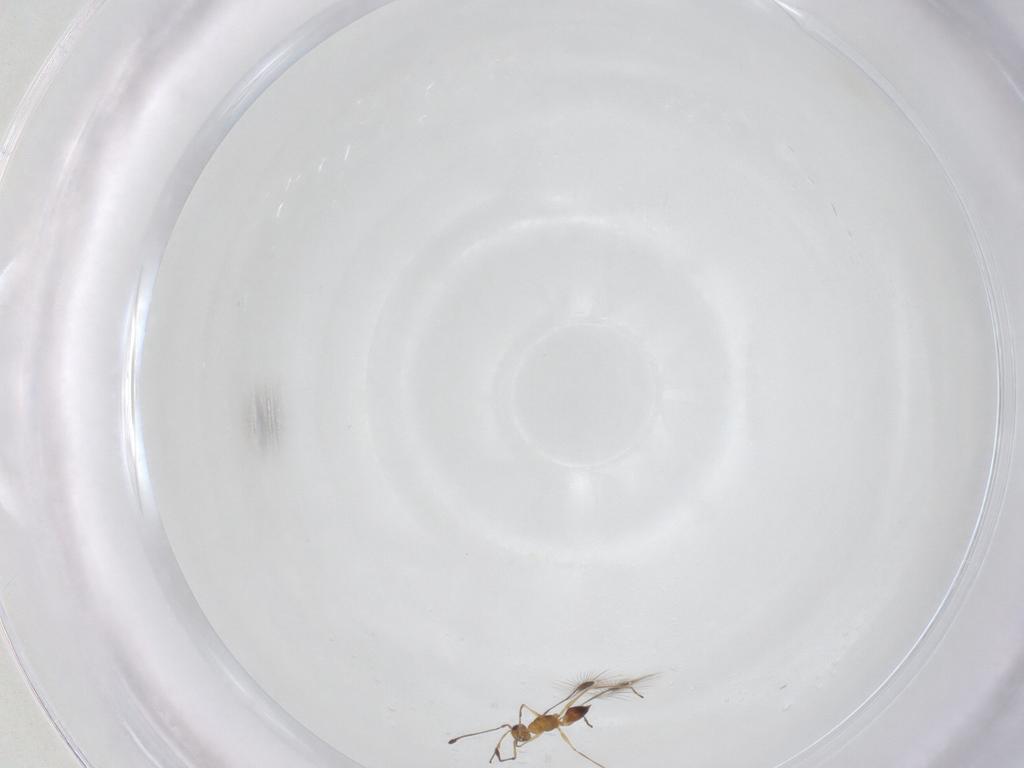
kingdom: Animalia
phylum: Arthropoda
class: Insecta
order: Hymenoptera
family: Mymaridae
